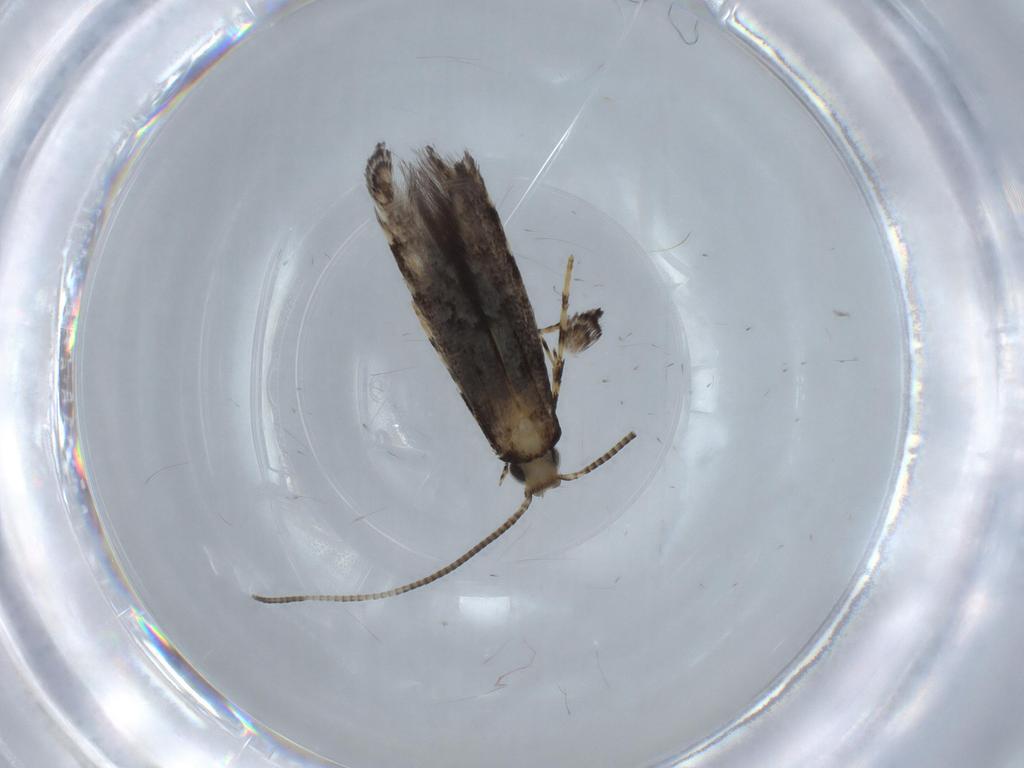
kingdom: Animalia
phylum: Arthropoda
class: Insecta
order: Lepidoptera
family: Gracillariidae
